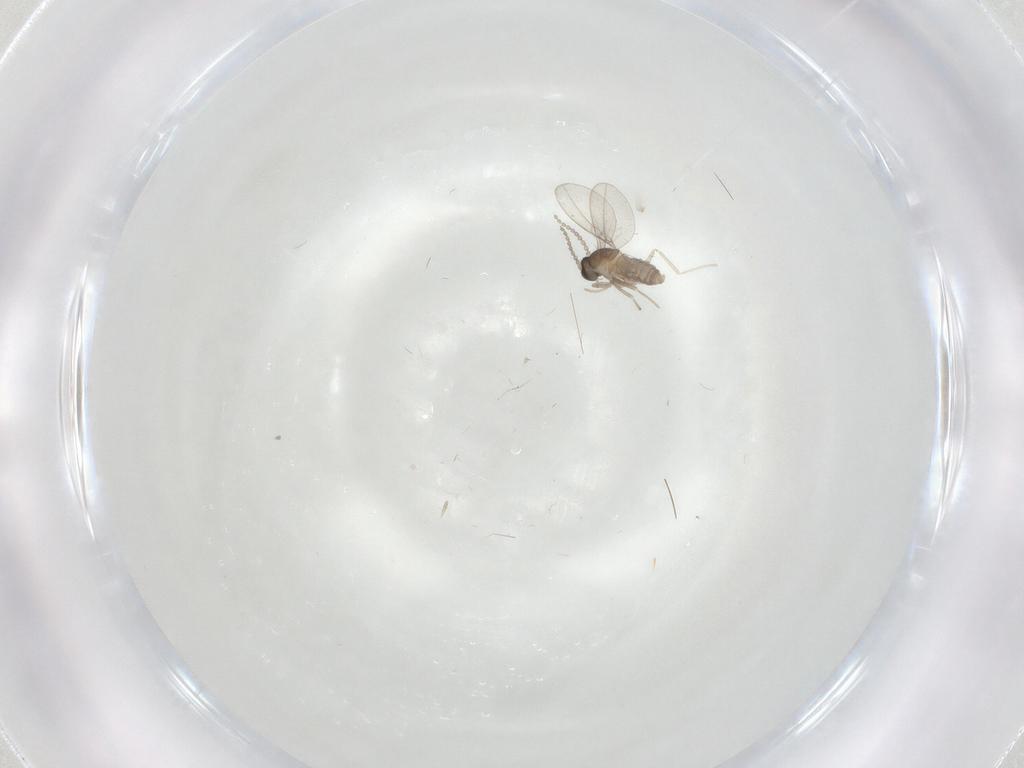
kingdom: Animalia
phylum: Arthropoda
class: Insecta
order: Diptera
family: Cecidomyiidae
